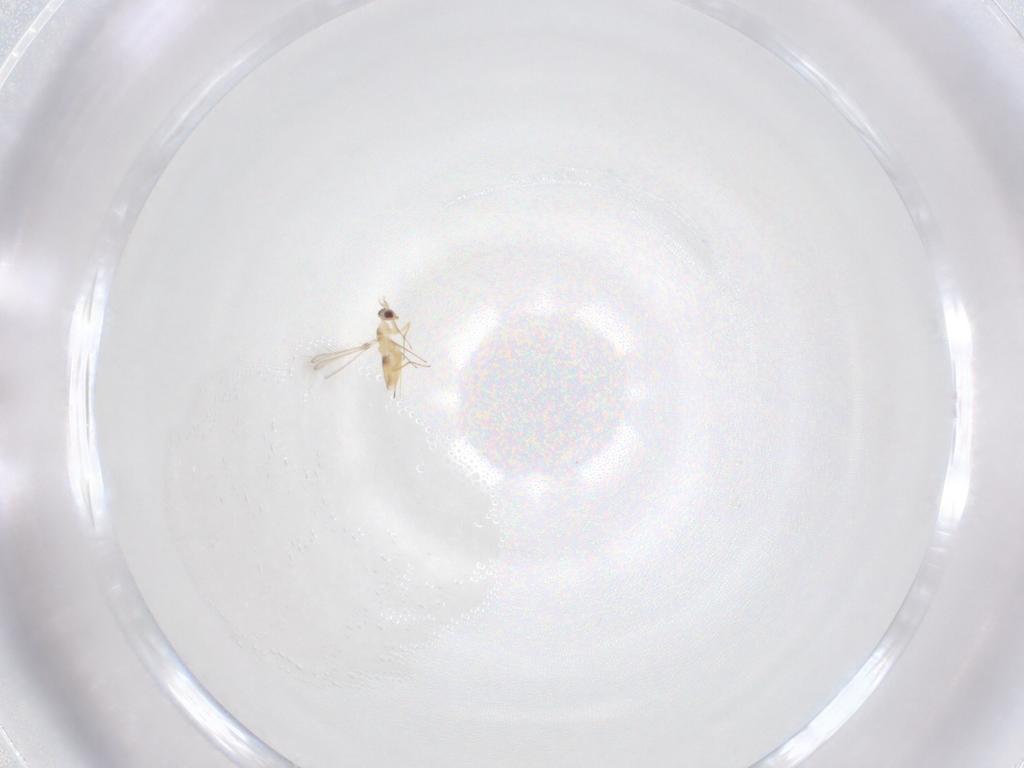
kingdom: Animalia
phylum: Arthropoda
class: Insecta
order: Hymenoptera
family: Mymaridae
